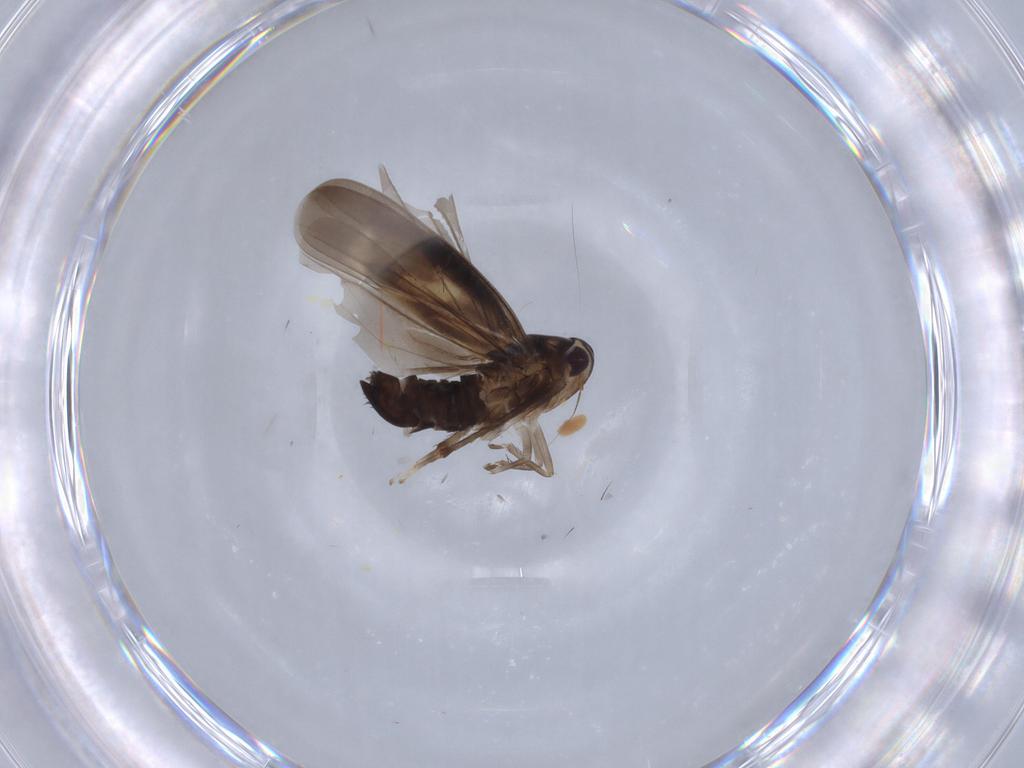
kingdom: Animalia
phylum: Arthropoda
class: Insecta
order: Hemiptera
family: Cicadellidae
